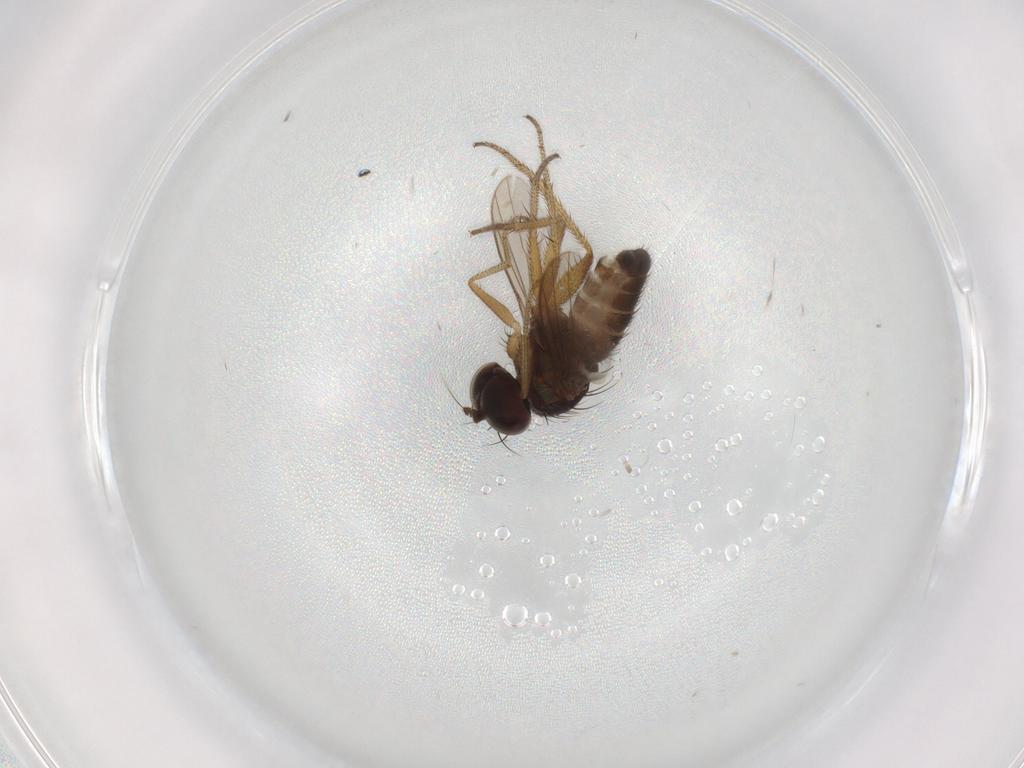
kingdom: Animalia
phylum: Arthropoda
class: Insecta
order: Diptera
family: Dolichopodidae
